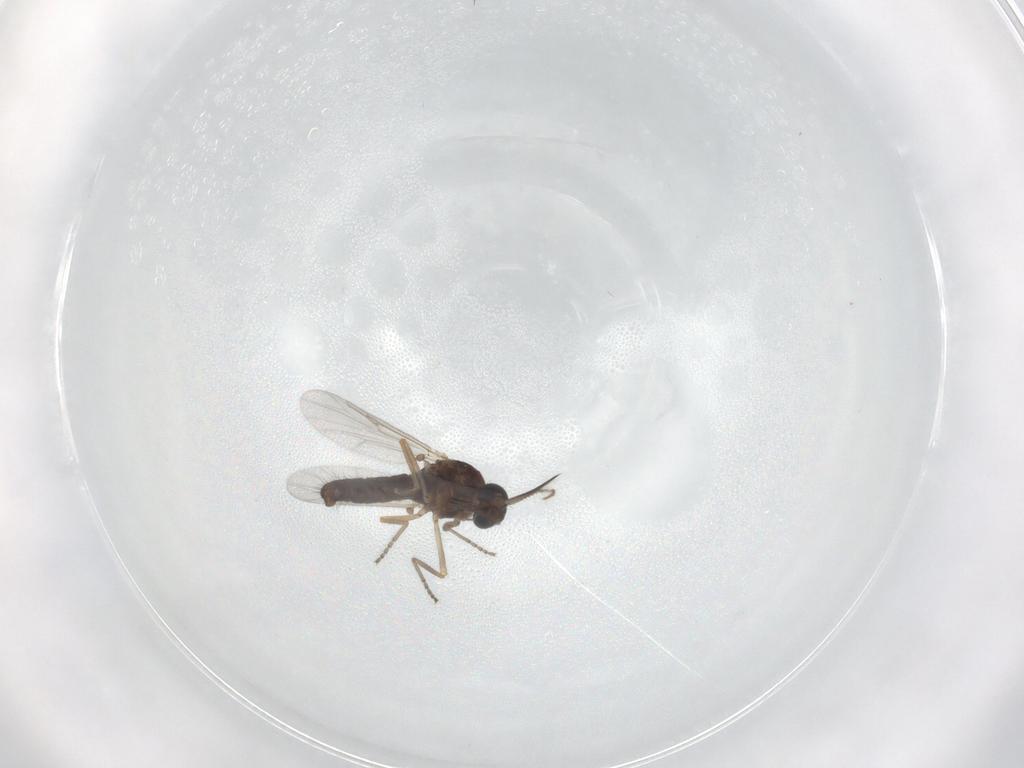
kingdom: Animalia
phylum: Arthropoda
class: Insecta
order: Diptera
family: Ceratopogonidae
